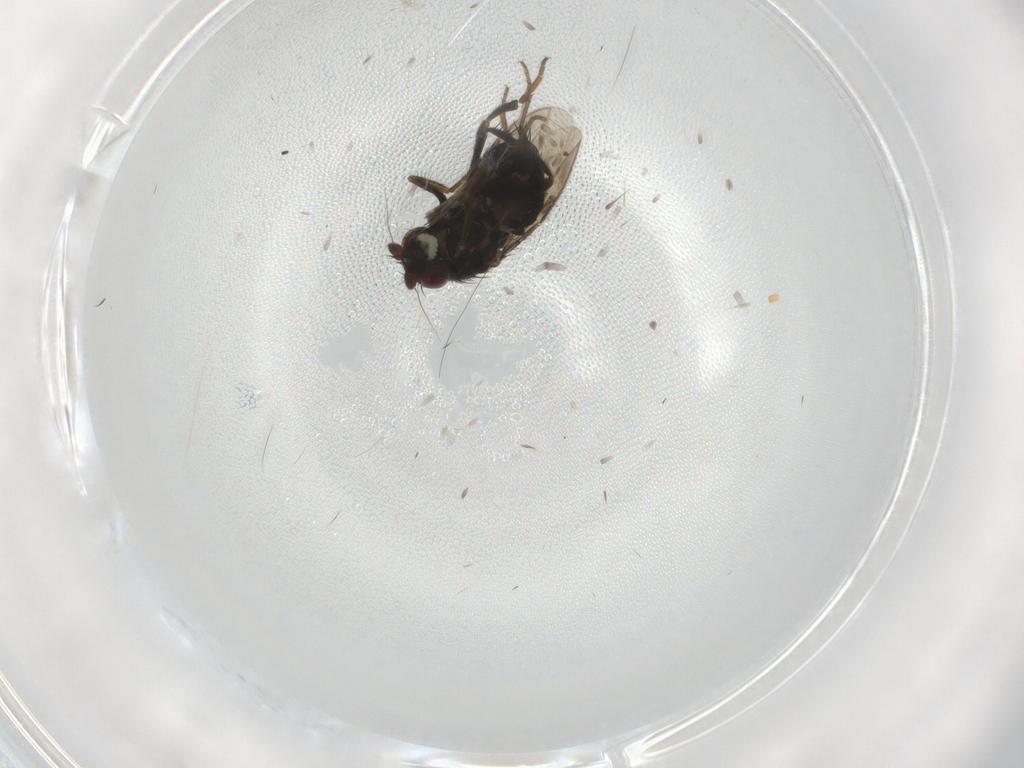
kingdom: Animalia
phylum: Arthropoda
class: Insecta
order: Diptera
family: Sphaeroceridae
